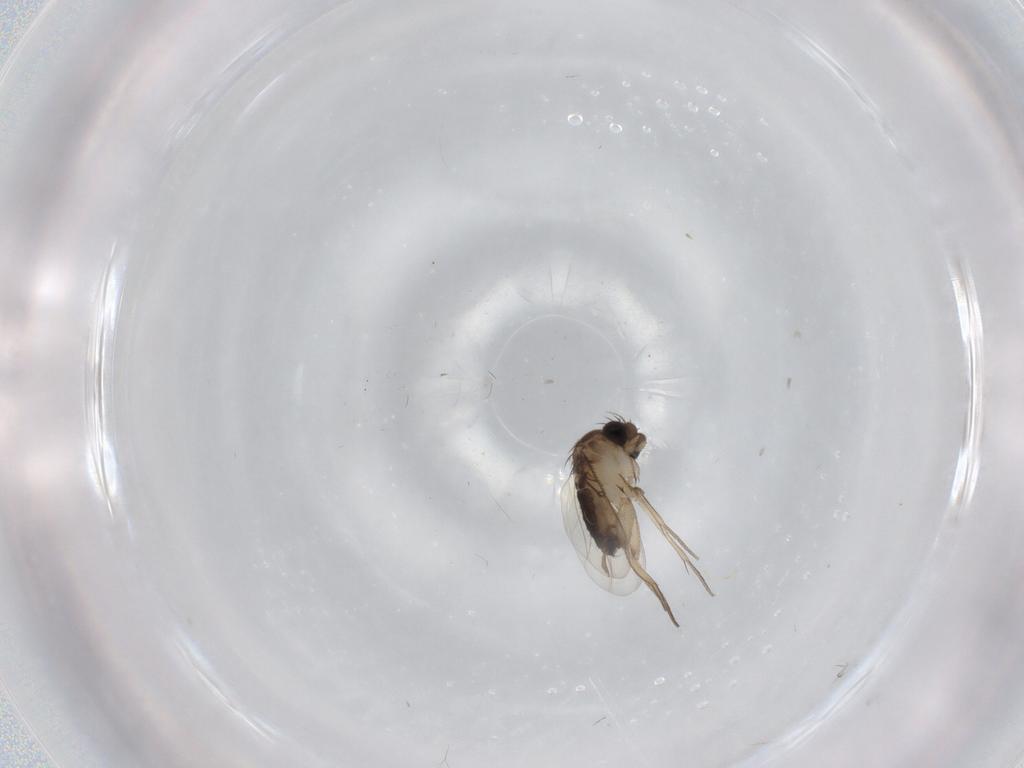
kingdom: Animalia
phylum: Arthropoda
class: Insecta
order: Diptera
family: Phoridae
